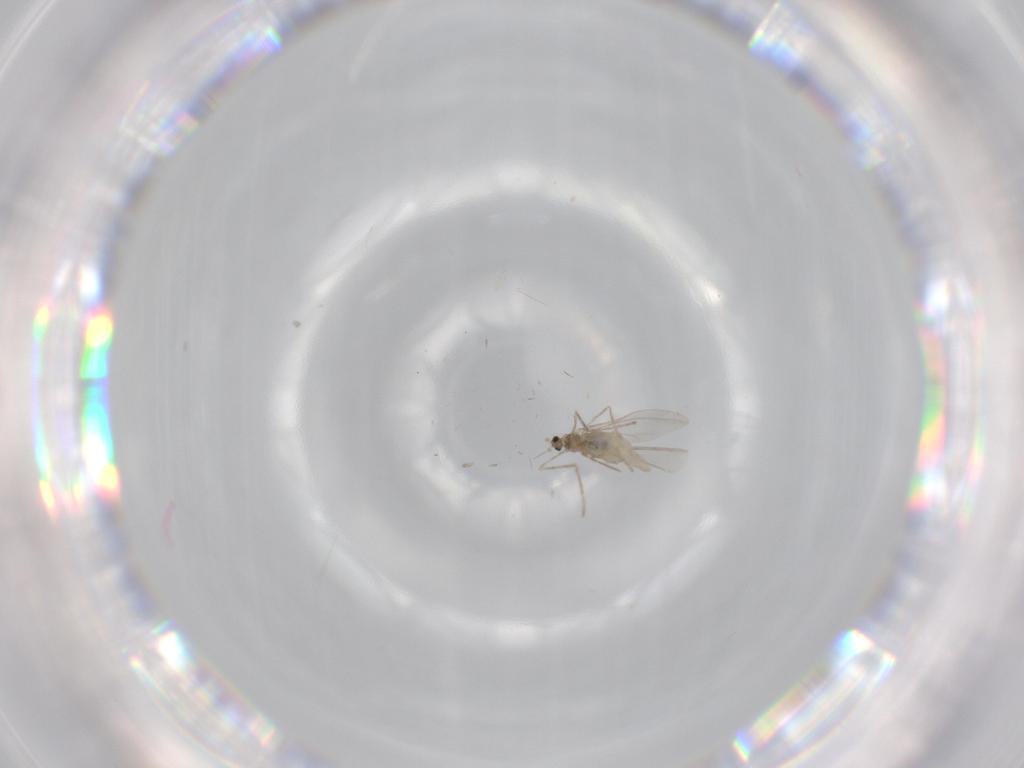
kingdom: Animalia
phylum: Arthropoda
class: Insecta
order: Diptera
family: Cecidomyiidae
